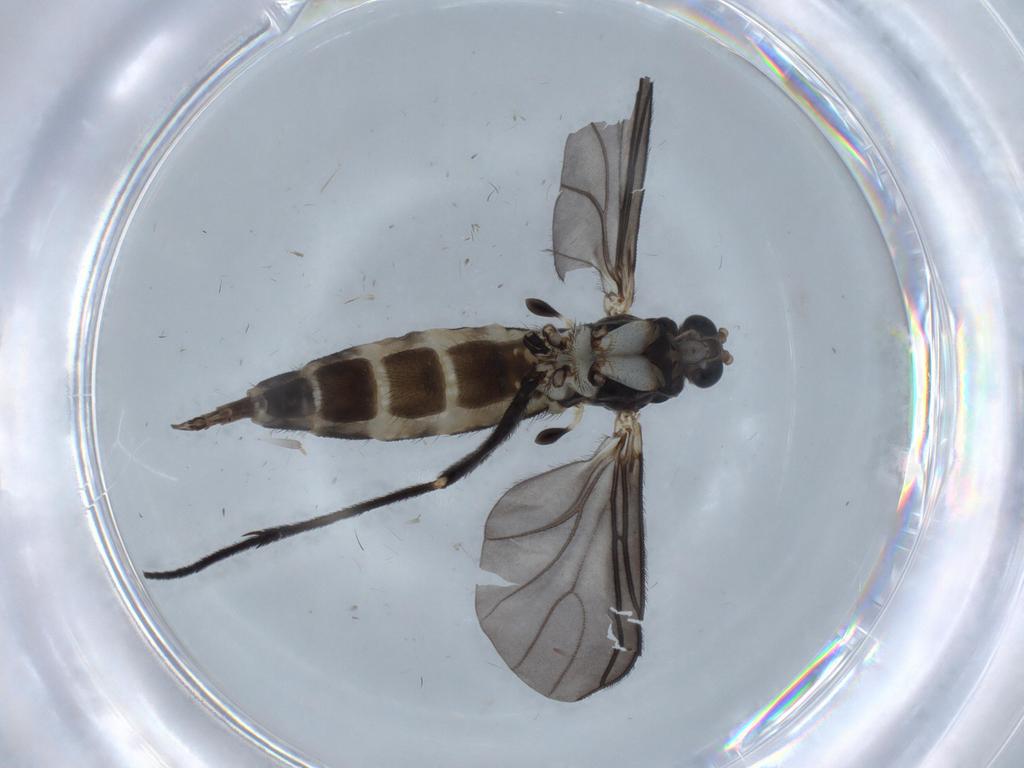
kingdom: Animalia
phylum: Arthropoda
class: Insecta
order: Diptera
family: Sciaridae
